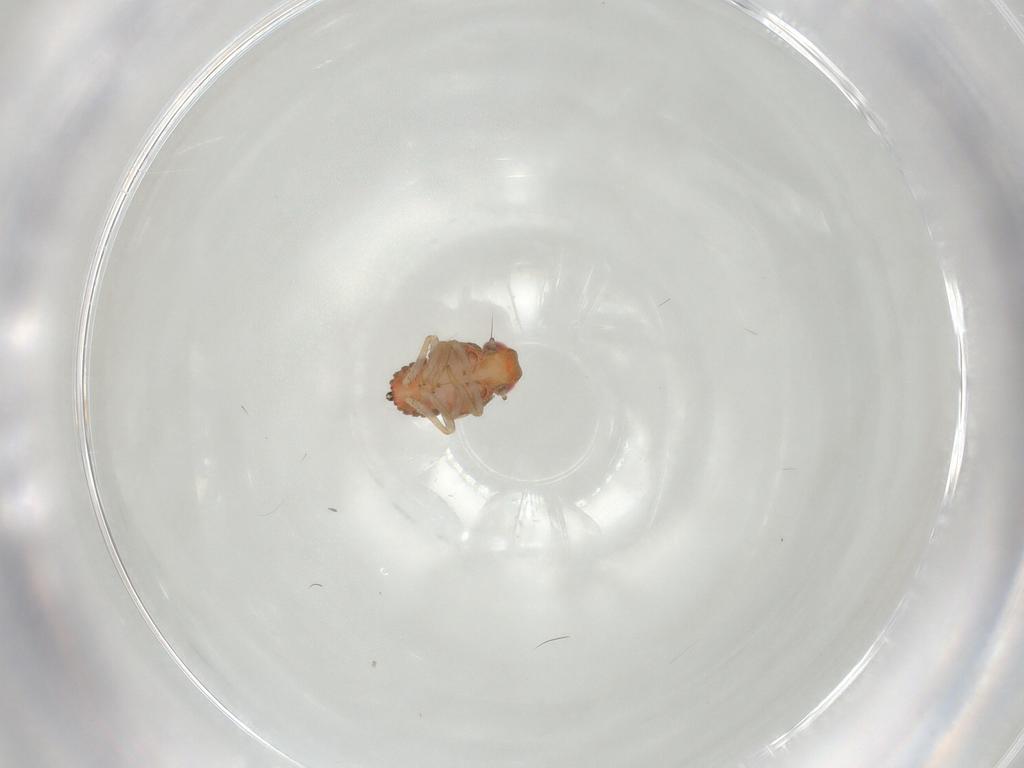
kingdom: Animalia
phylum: Arthropoda
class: Insecta
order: Hemiptera
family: Issidae
